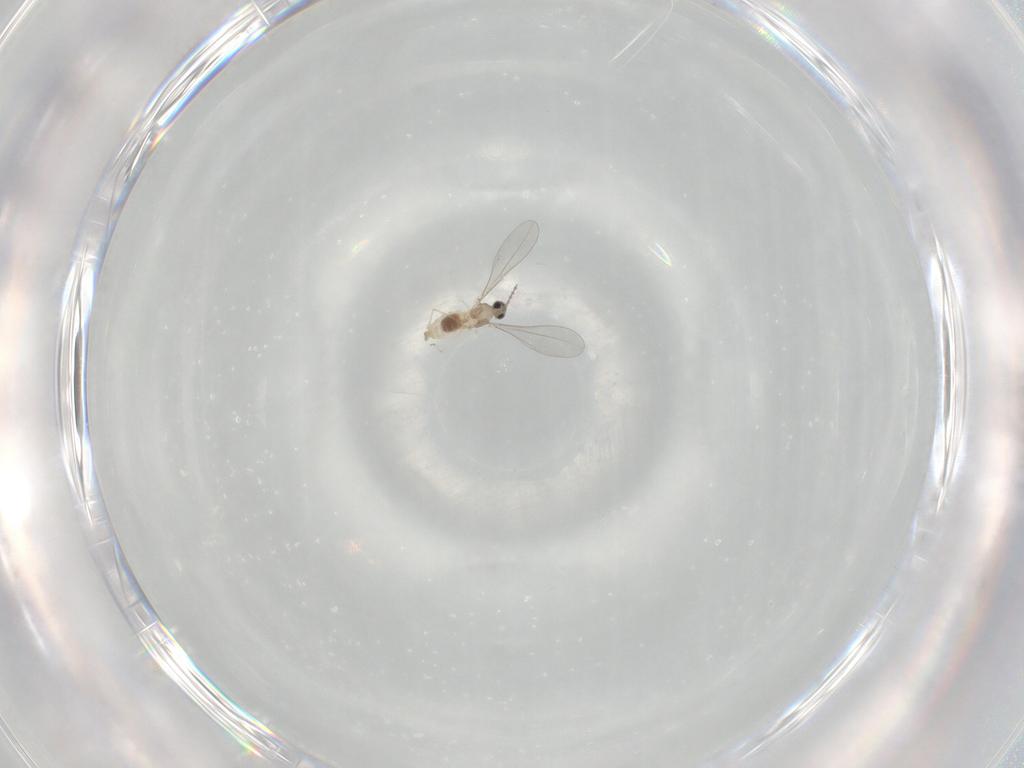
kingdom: Animalia
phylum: Arthropoda
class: Insecta
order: Diptera
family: Cecidomyiidae
